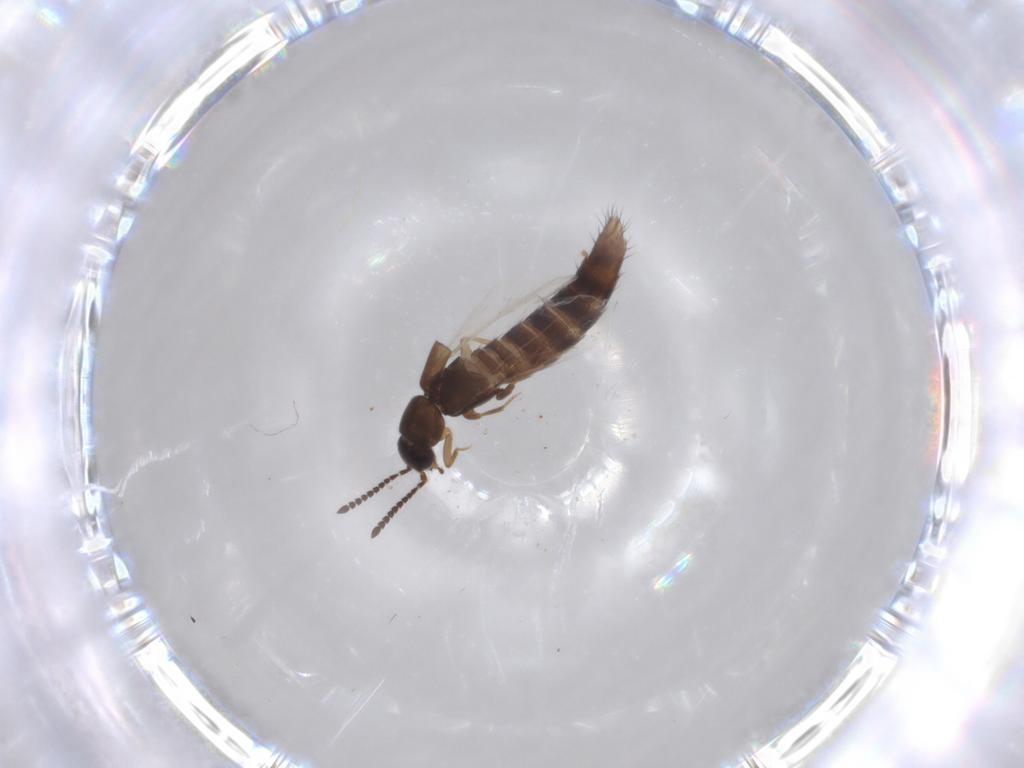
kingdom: Animalia
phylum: Arthropoda
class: Insecta
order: Coleoptera
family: Staphylinidae
